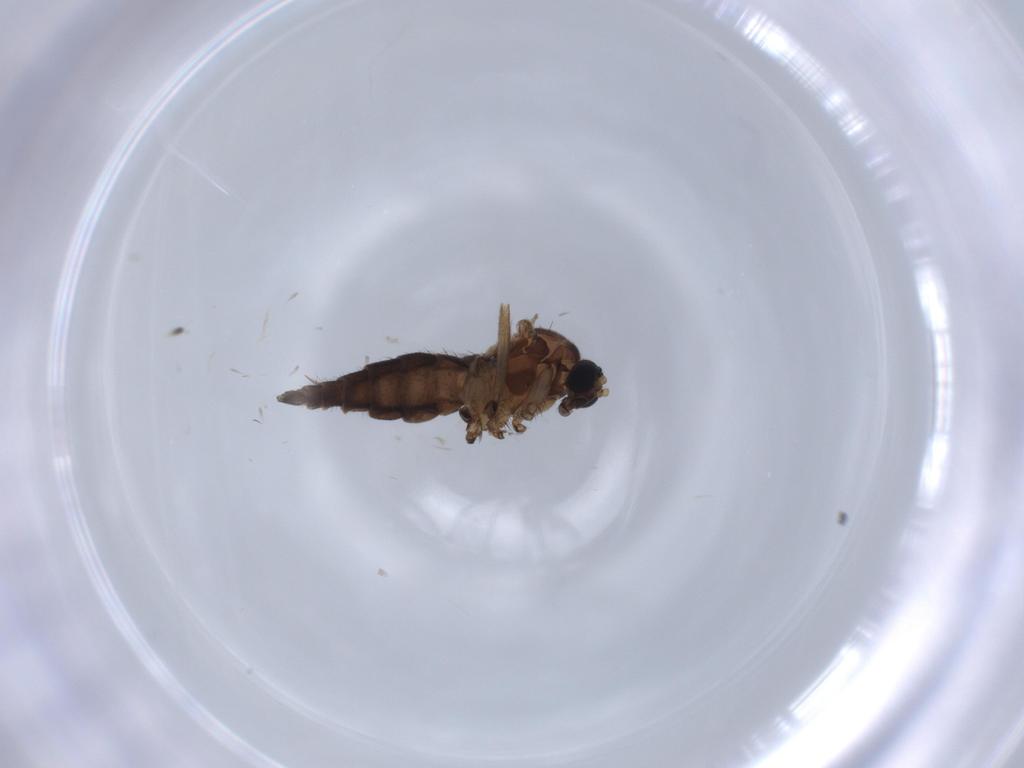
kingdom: Animalia
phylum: Arthropoda
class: Insecta
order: Diptera
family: Sciaridae
